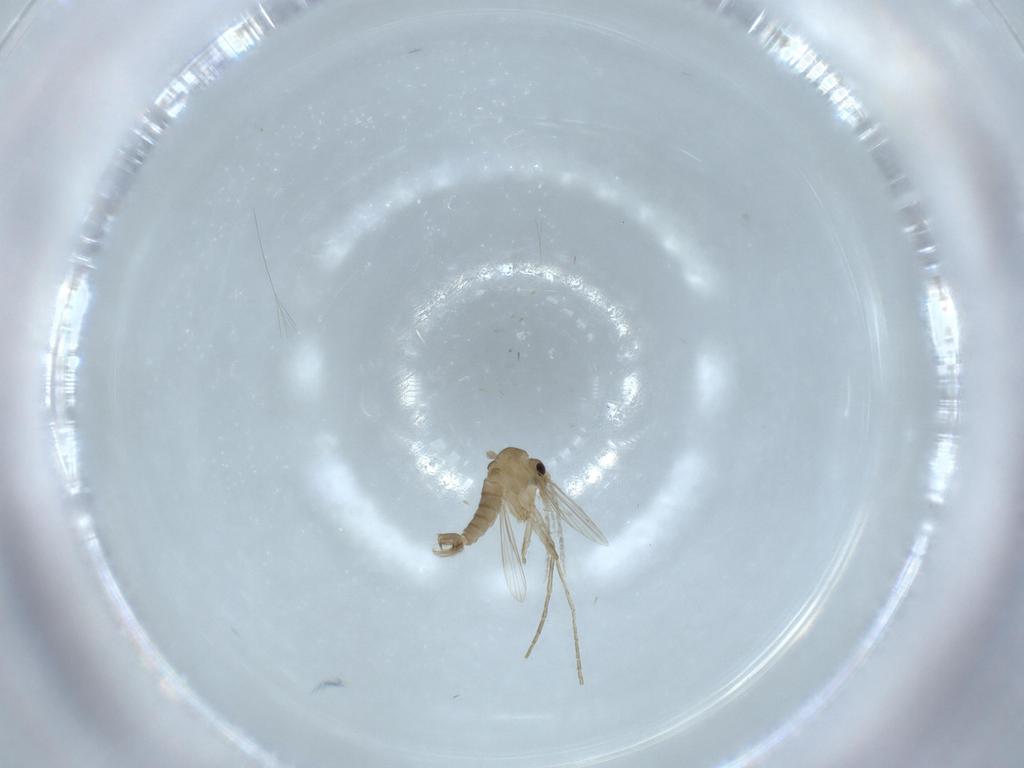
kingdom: Animalia
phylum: Arthropoda
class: Insecta
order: Diptera
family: Psychodidae
